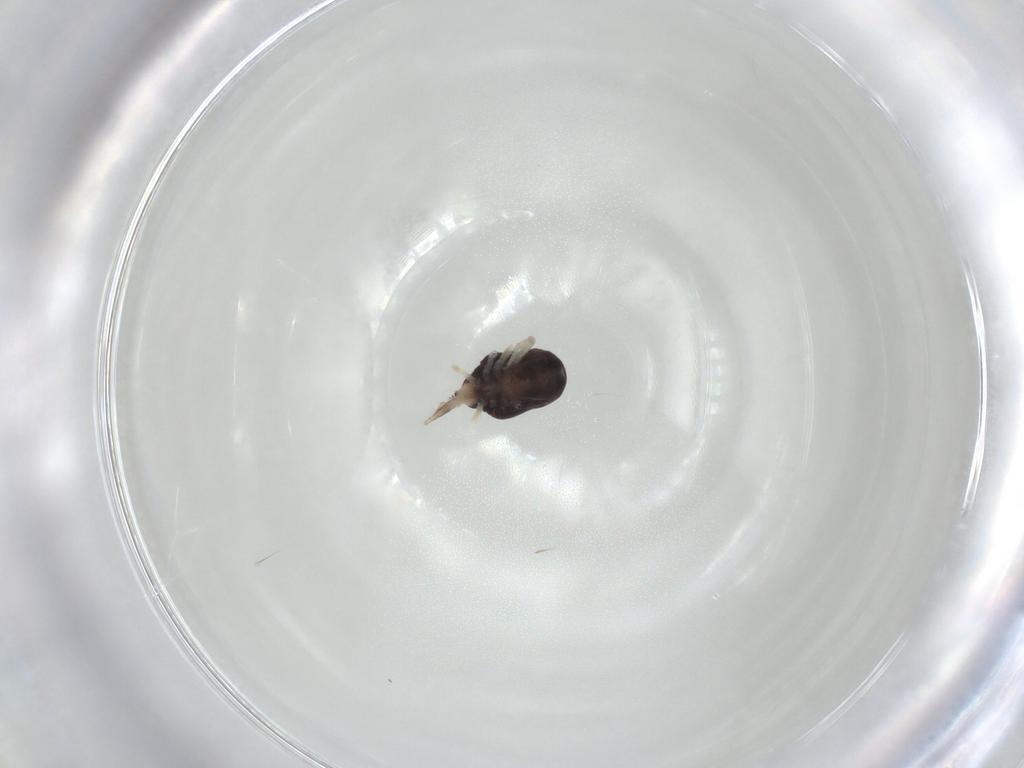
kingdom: Animalia
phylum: Arthropoda
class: Arachnida
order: Trombidiformes
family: Bdellidae
